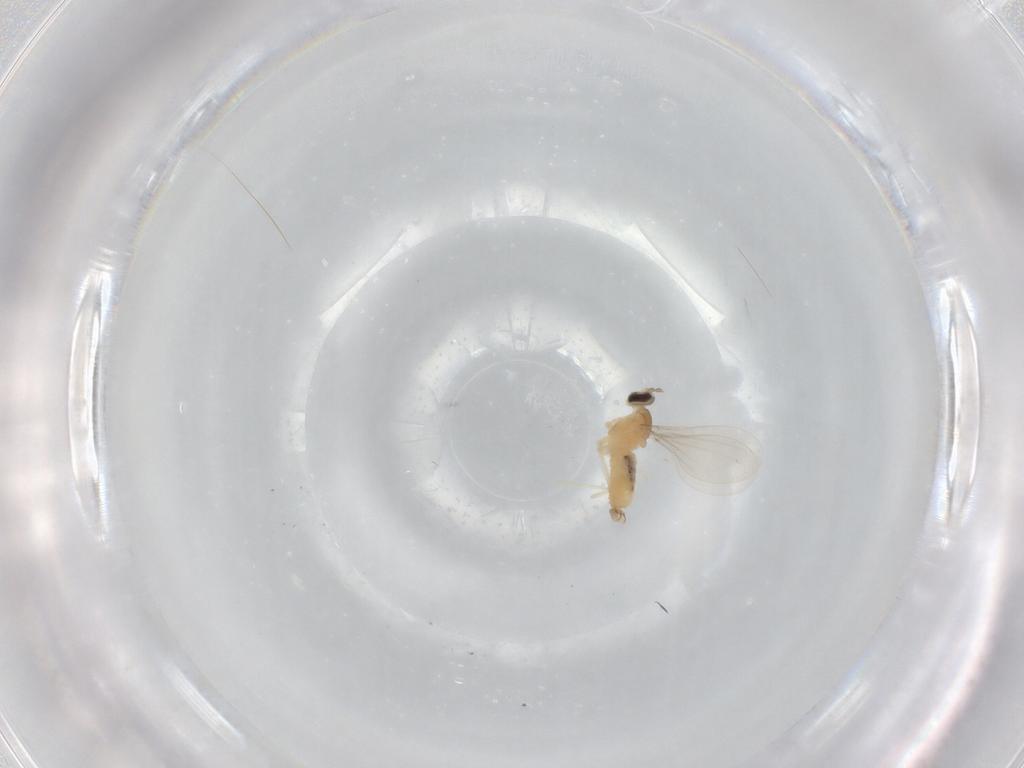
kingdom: Animalia
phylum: Arthropoda
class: Insecta
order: Diptera
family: Cecidomyiidae
